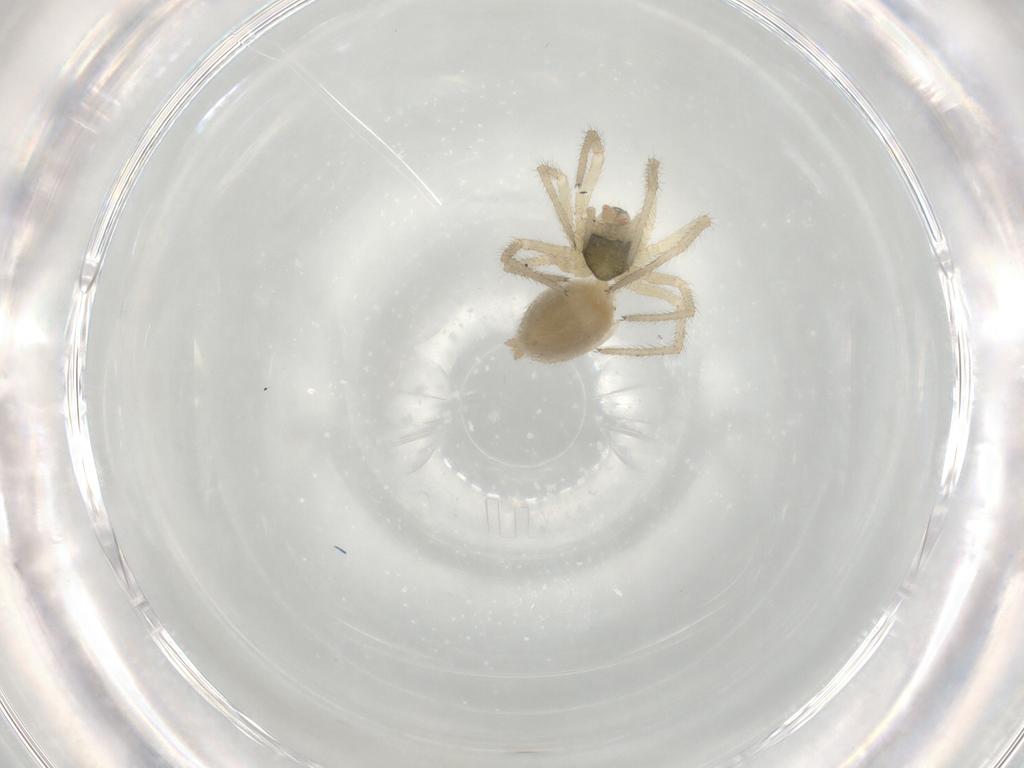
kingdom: Animalia
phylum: Arthropoda
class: Arachnida
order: Araneae
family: Linyphiidae
